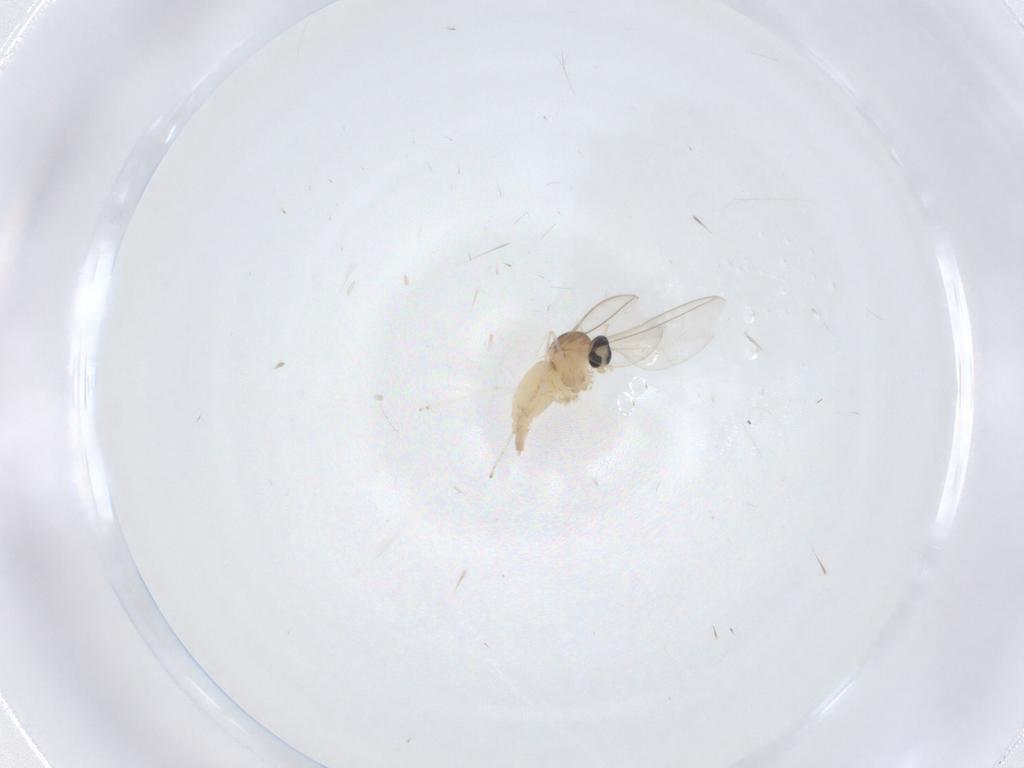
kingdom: Animalia
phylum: Arthropoda
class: Insecta
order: Diptera
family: Cecidomyiidae
